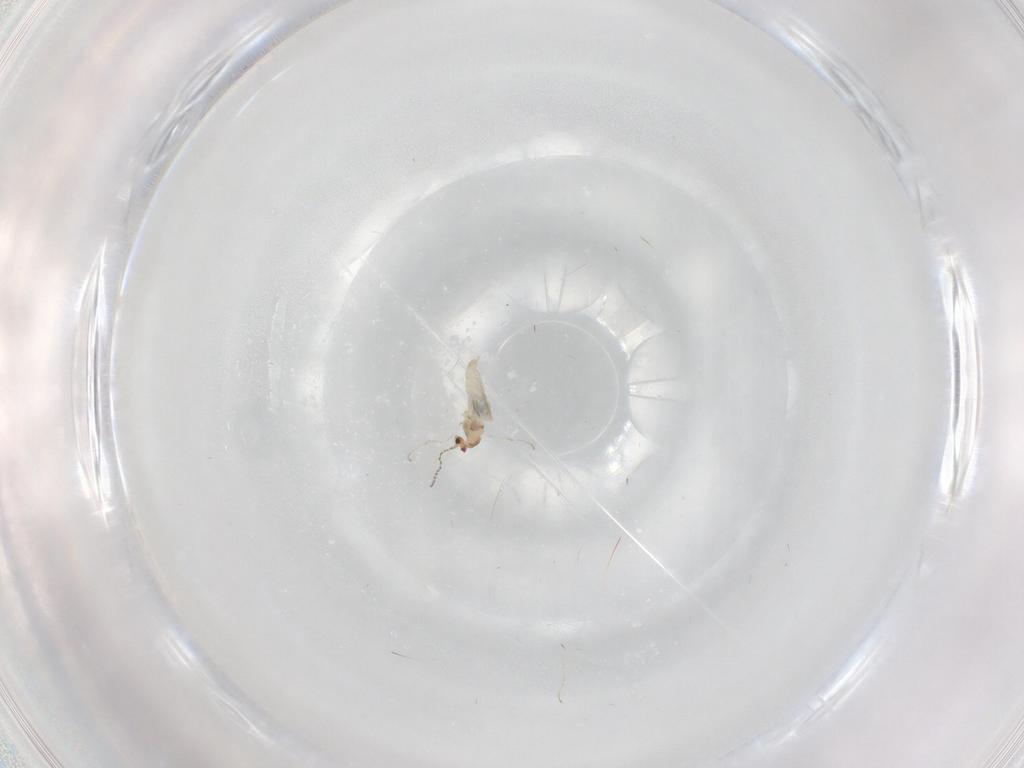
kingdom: Animalia
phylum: Arthropoda
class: Insecta
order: Diptera
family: Cecidomyiidae
